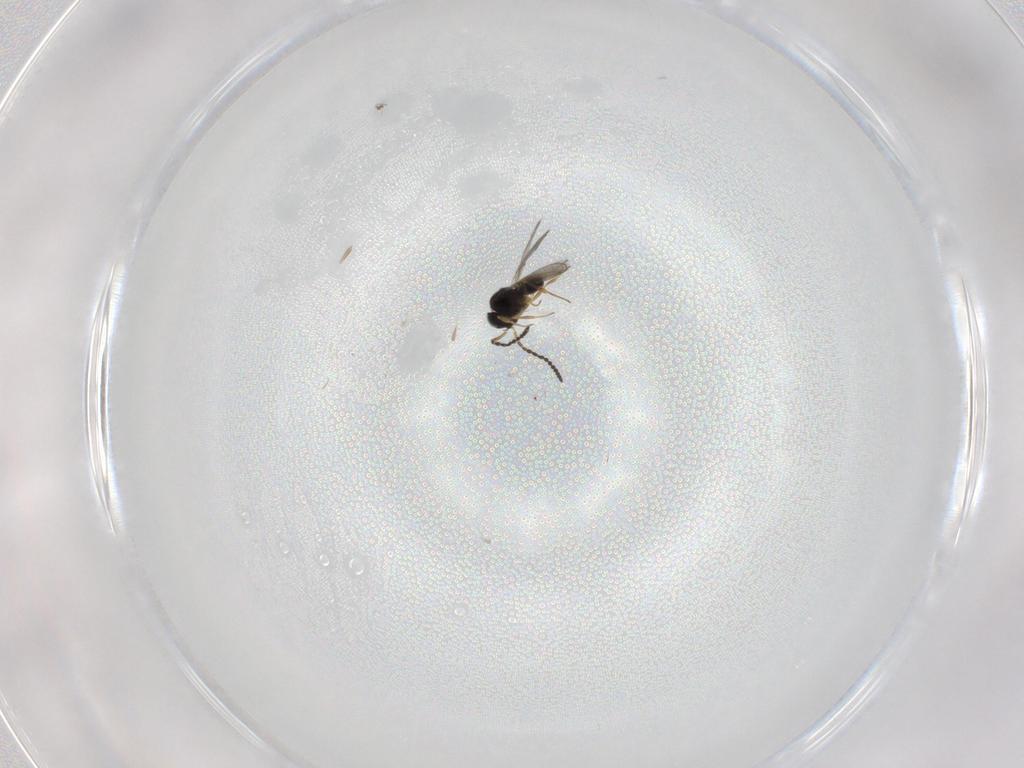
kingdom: Animalia
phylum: Arthropoda
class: Insecta
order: Hymenoptera
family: Scelionidae
